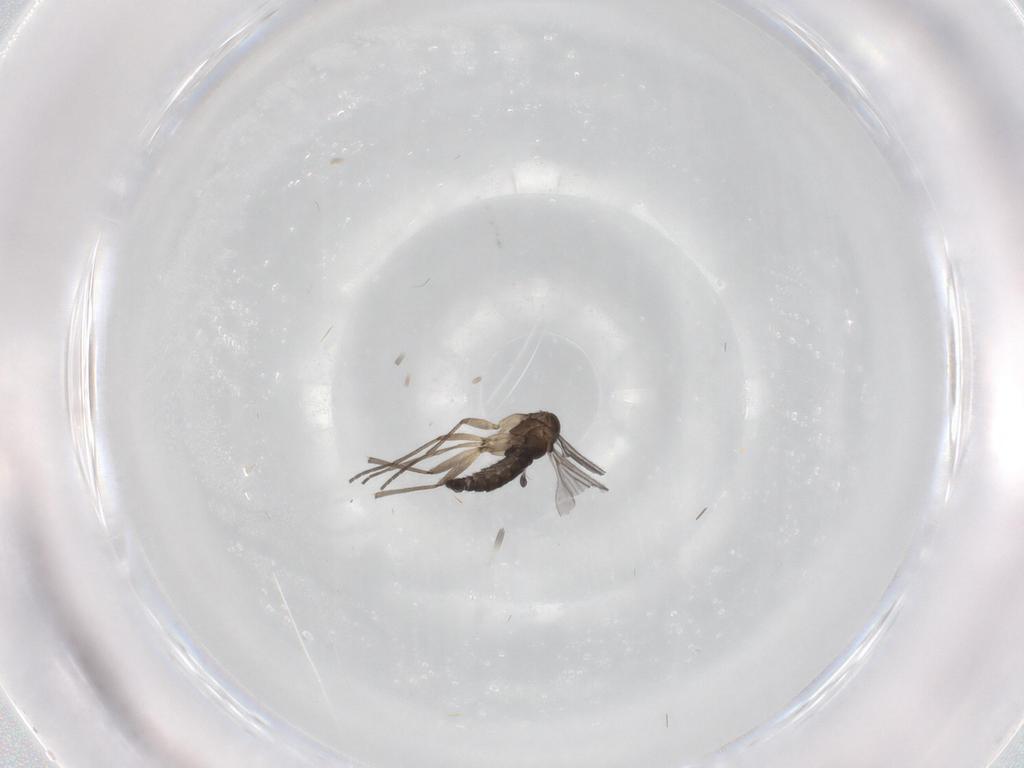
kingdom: Animalia
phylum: Arthropoda
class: Insecta
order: Diptera
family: Sciaridae
